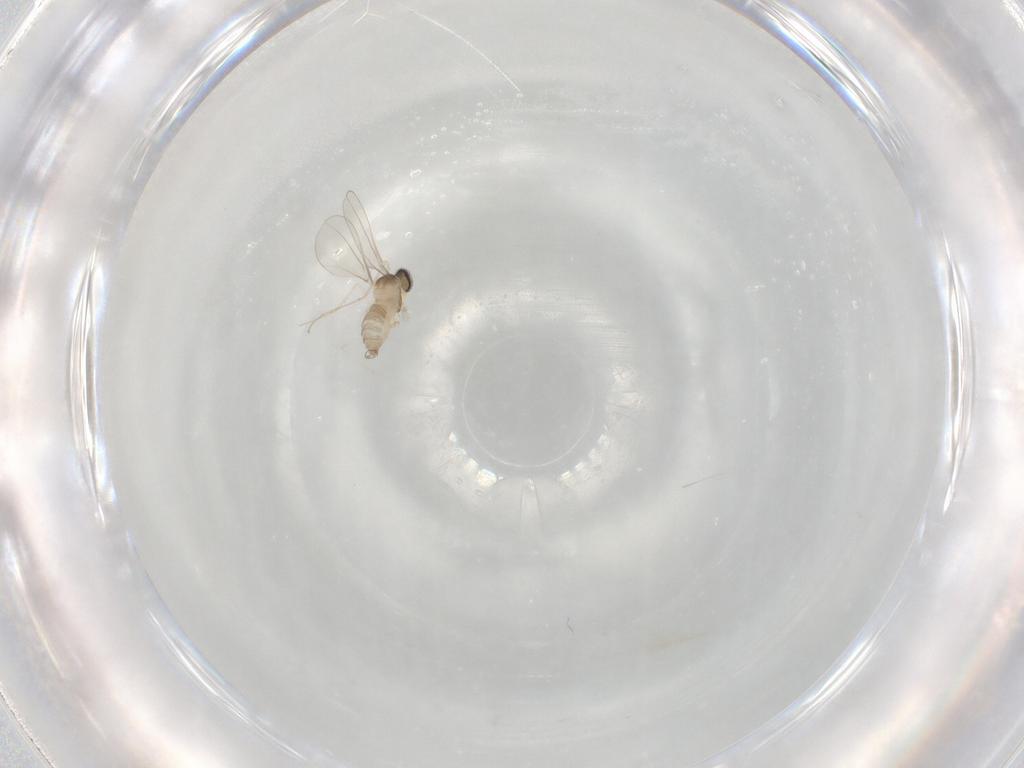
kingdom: Animalia
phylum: Arthropoda
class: Insecta
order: Diptera
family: Cecidomyiidae
